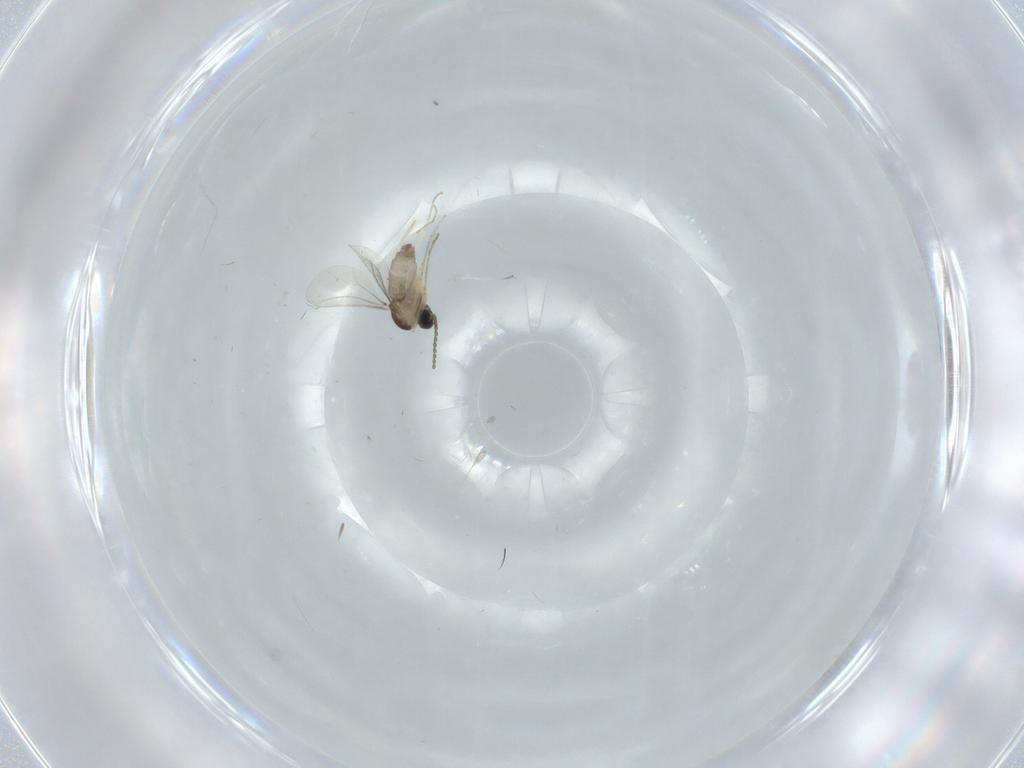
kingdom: Animalia
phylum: Arthropoda
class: Insecta
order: Diptera
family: Cecidomyiidae
